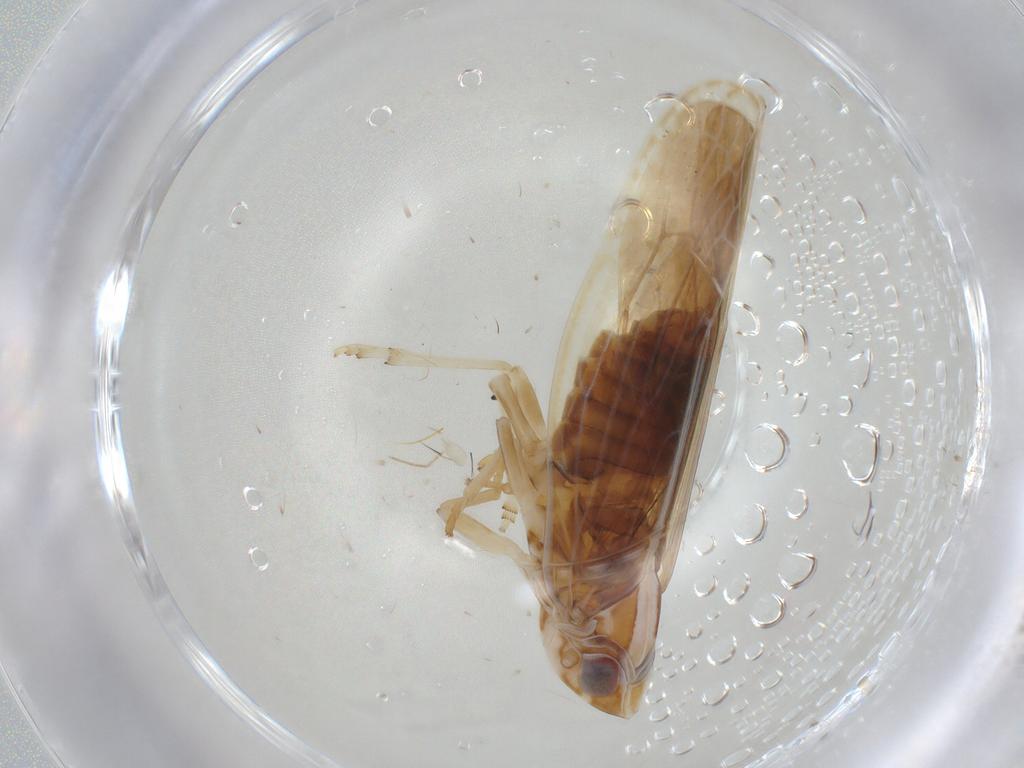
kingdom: Animalia
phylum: Arthropoda
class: Insecta
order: Hemiptera
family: Achilidae
